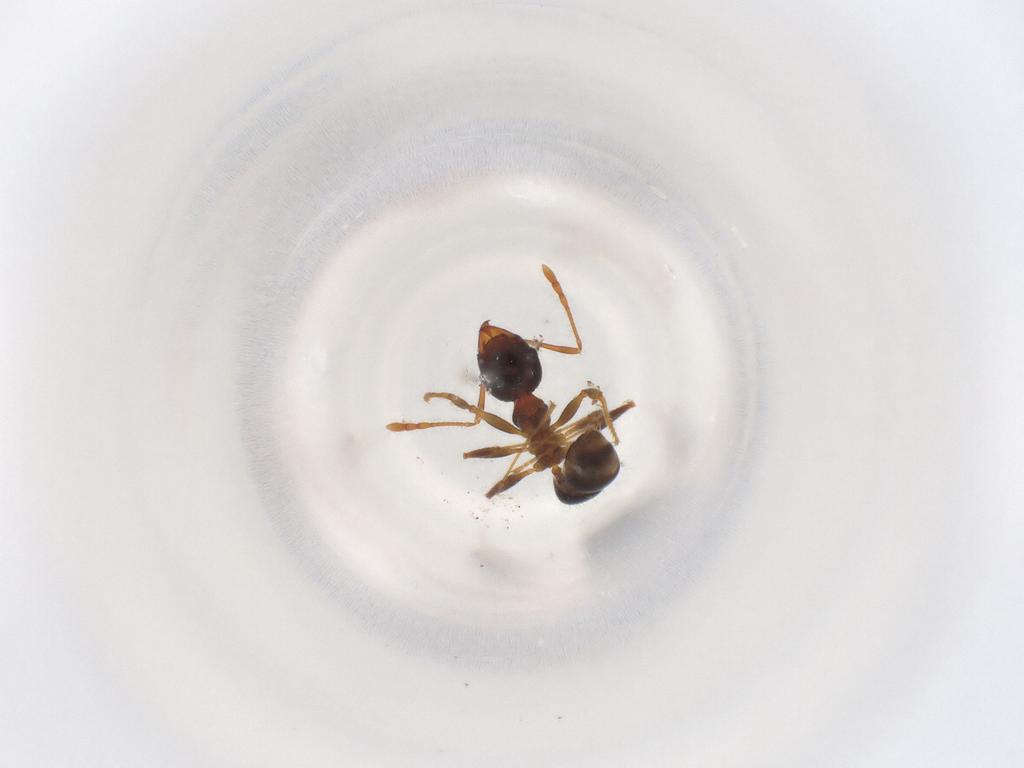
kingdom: Animalia
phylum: Arthropoda
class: Insecta
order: Hymenoptera
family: Formicidae
